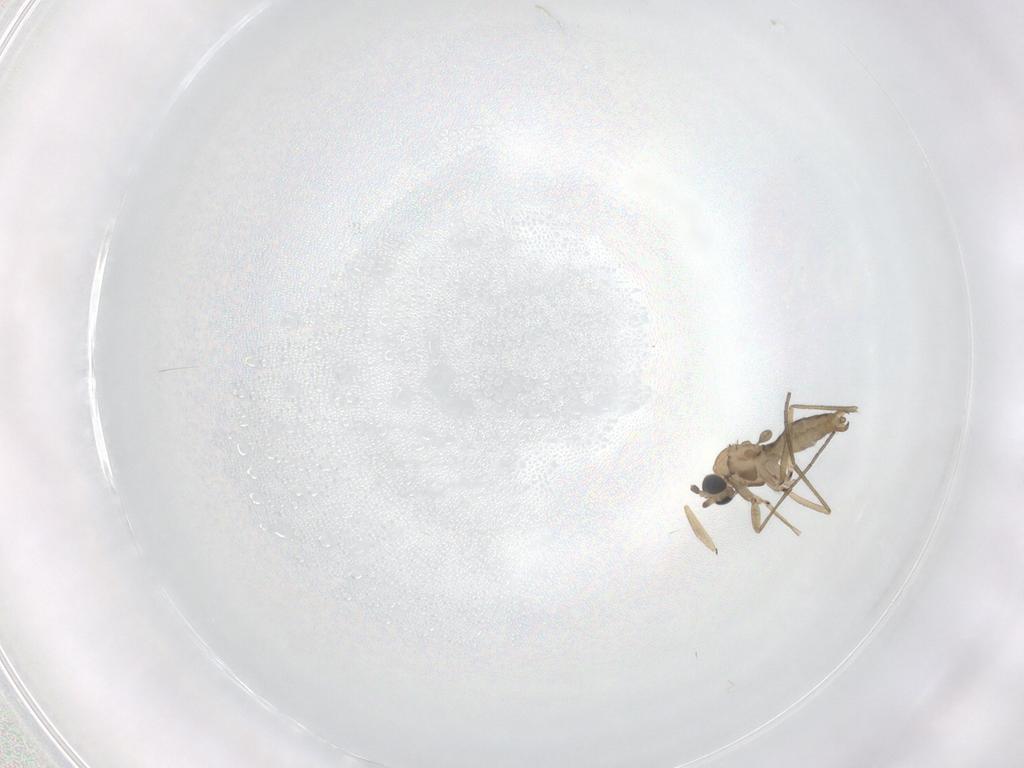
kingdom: Animalia
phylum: Arthropoda
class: Insecta
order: Diptera
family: Sciaridae
